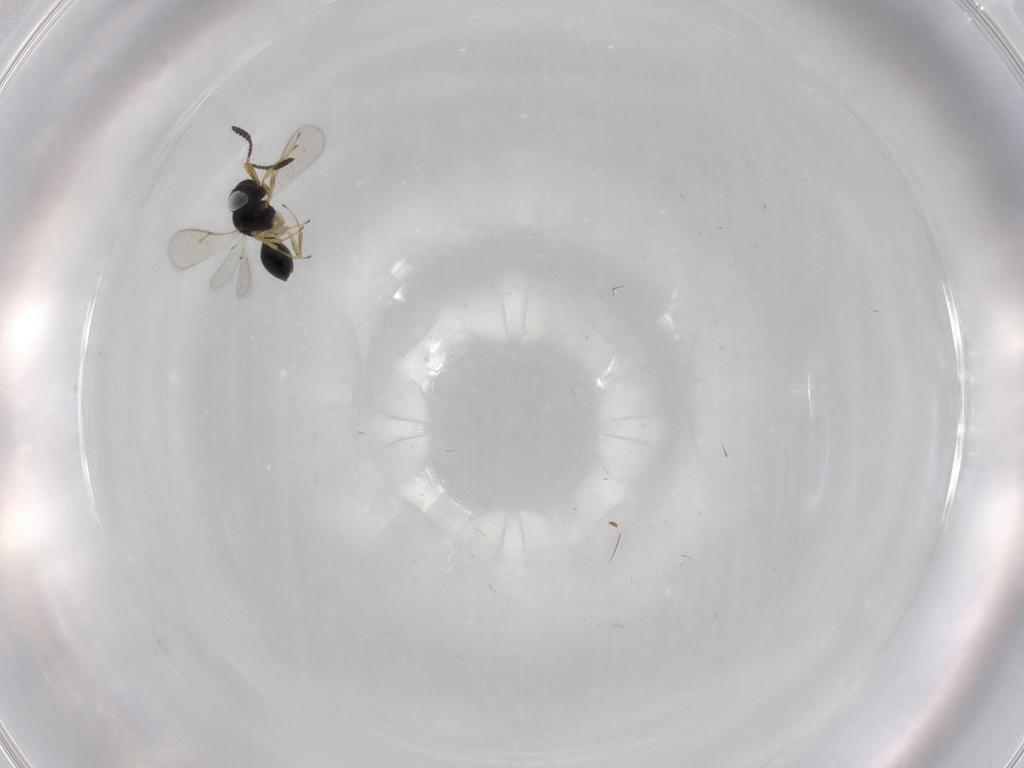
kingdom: Animalia
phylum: Arthropoda
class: Insecta
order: Hymenoptera
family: Scelionidae
